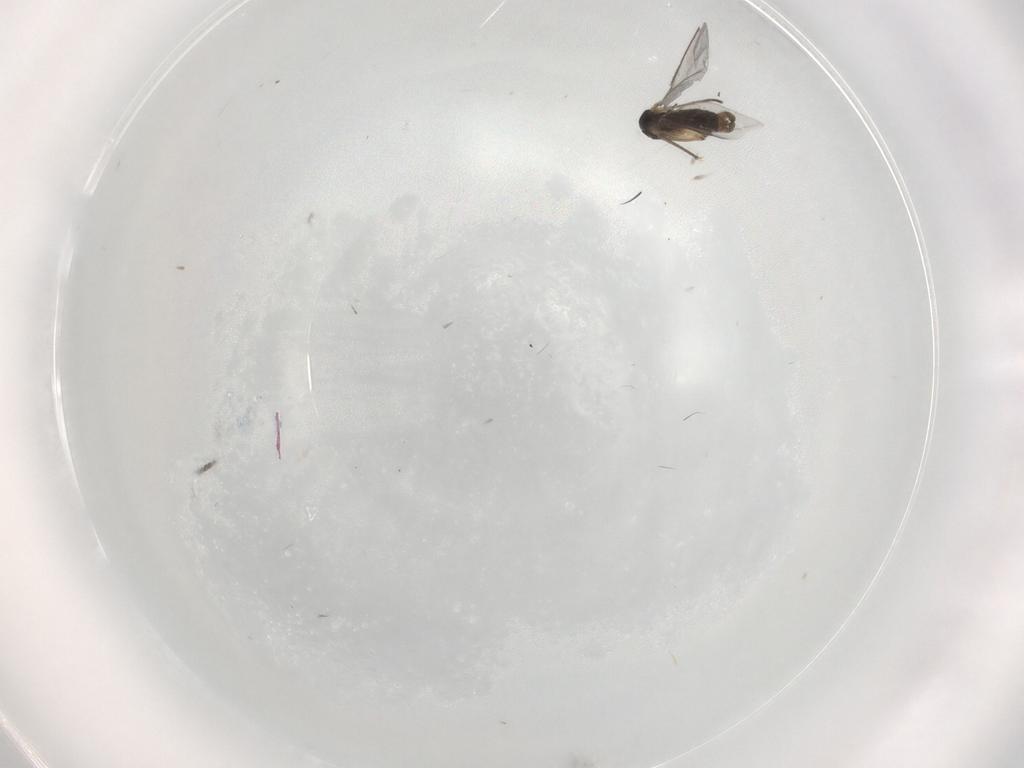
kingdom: Animalia
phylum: Arthropoda
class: Insecta
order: Diptera
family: Sciaridae
